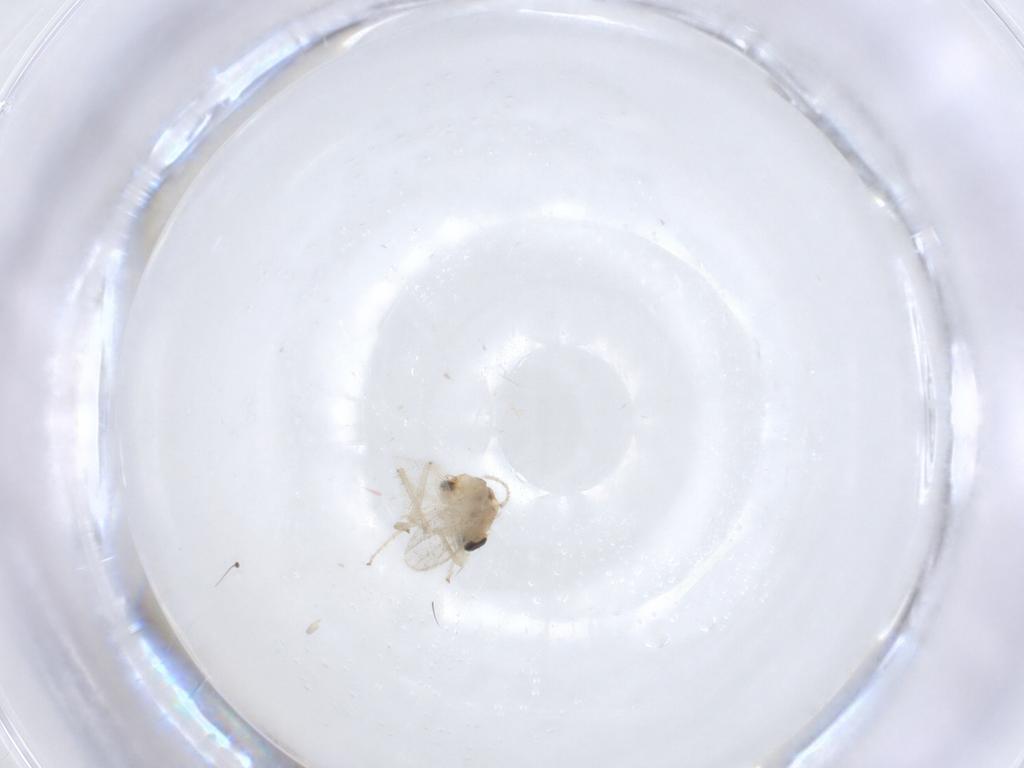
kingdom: Animalia
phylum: Arthropoda
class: Insecta
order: Diptera
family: Hybotidae
